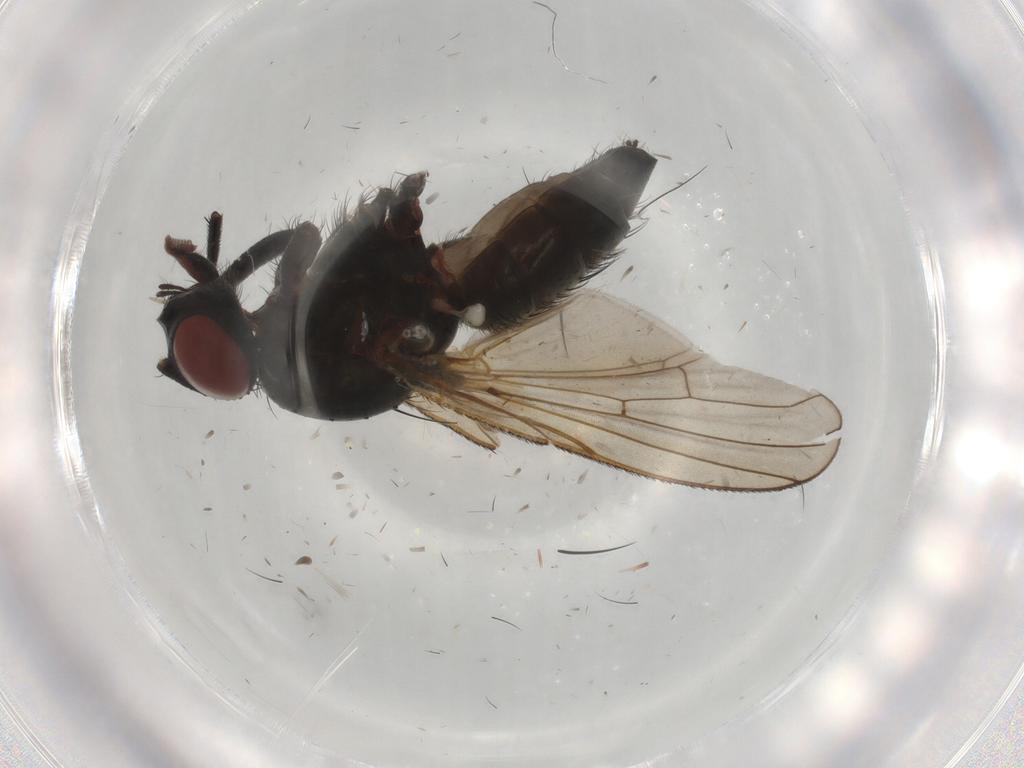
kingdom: Animalia
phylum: Arthropoda
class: Insecta
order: Diptera
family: Anthomyiidae
